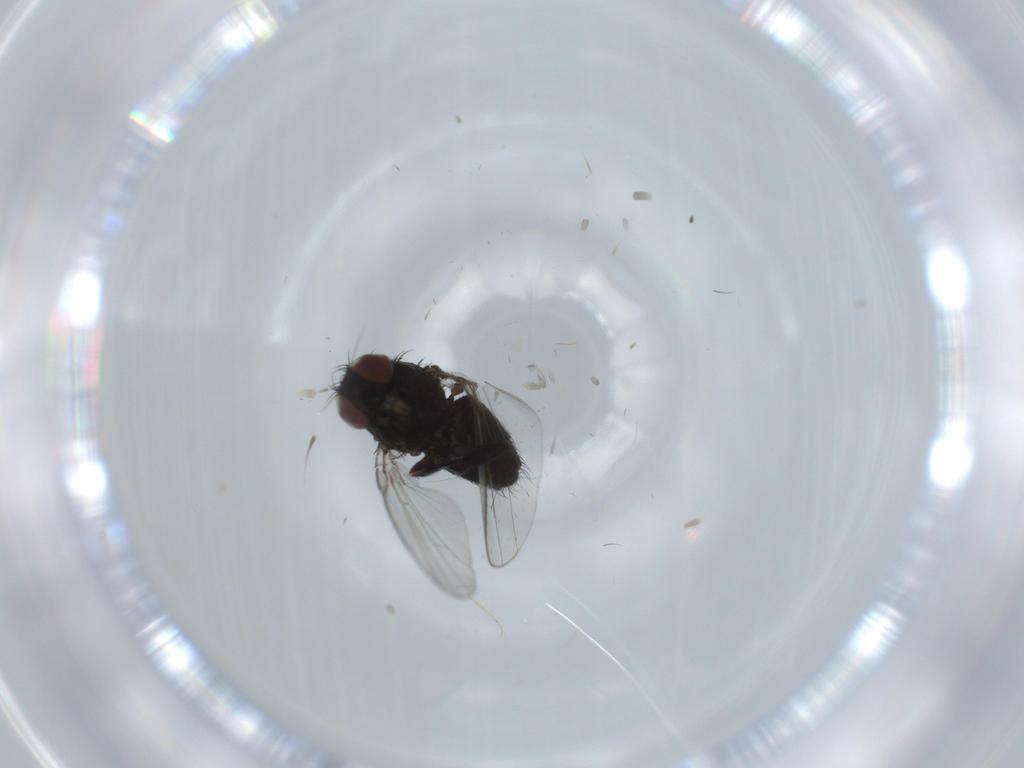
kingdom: Animalia
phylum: Arthropoda
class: Insecta
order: Diptera
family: Milichiidae
